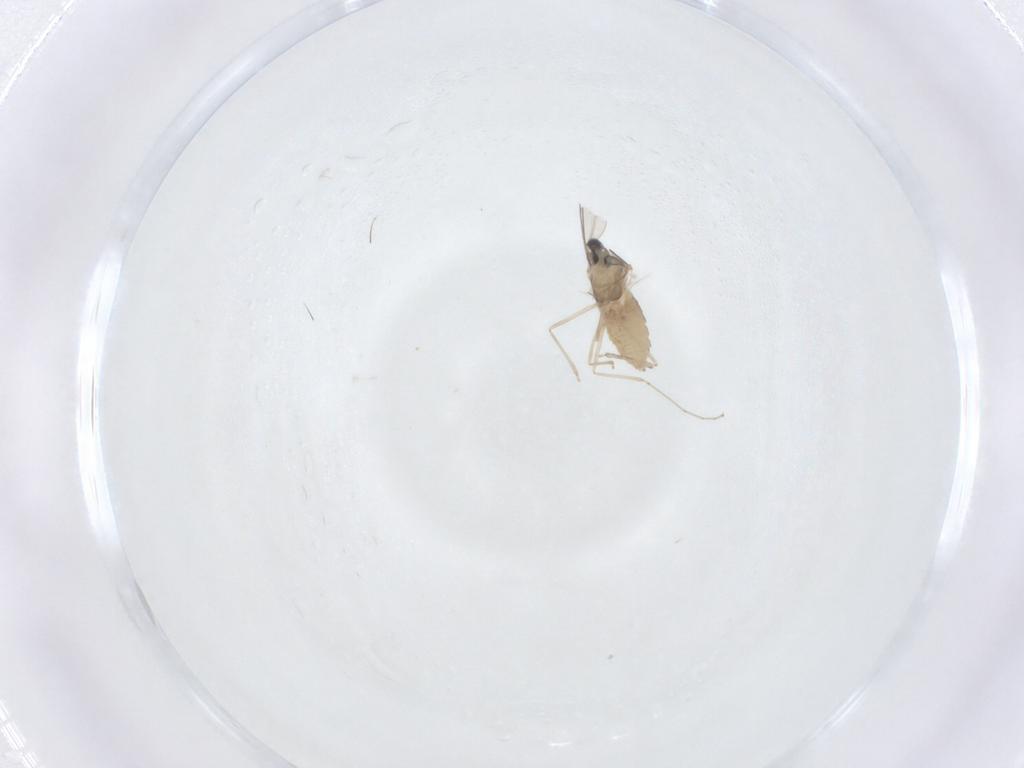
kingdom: Animalia
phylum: Arthropoda
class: Insecta
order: Diptera
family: Cecidomyiidae
